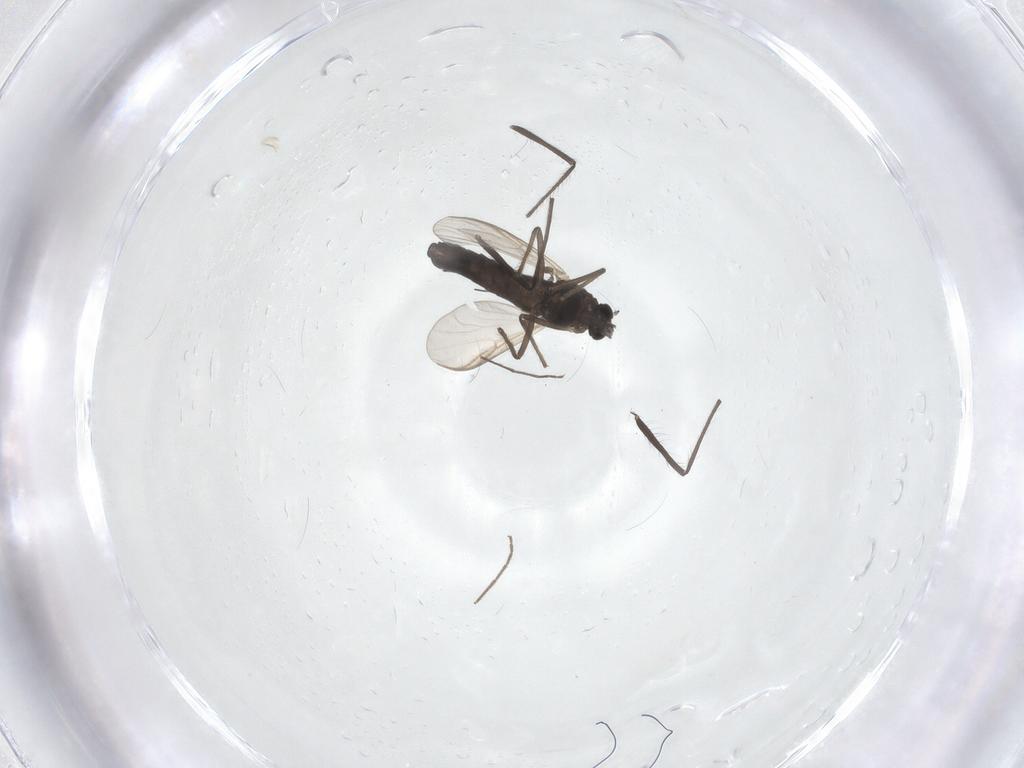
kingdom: Animalia
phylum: Arthropoda
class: Insecta
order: Diptera
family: Chironomidae
